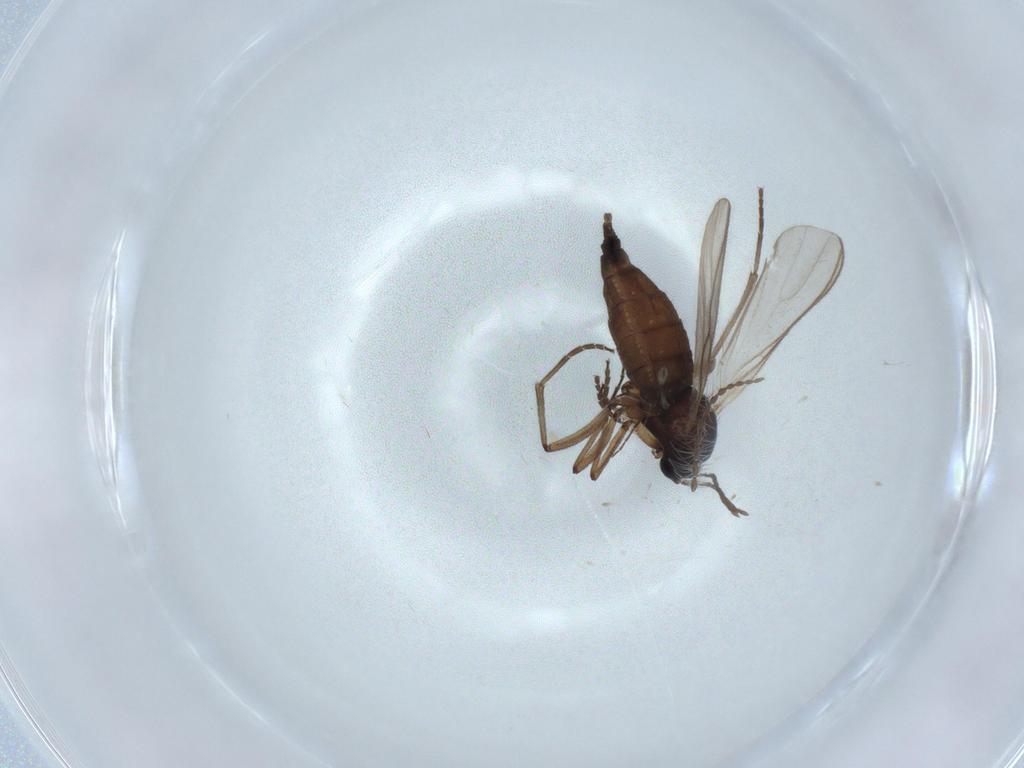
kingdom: Animalia
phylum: Arthropoda
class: Insecta
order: Diptera
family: Sciaridae
